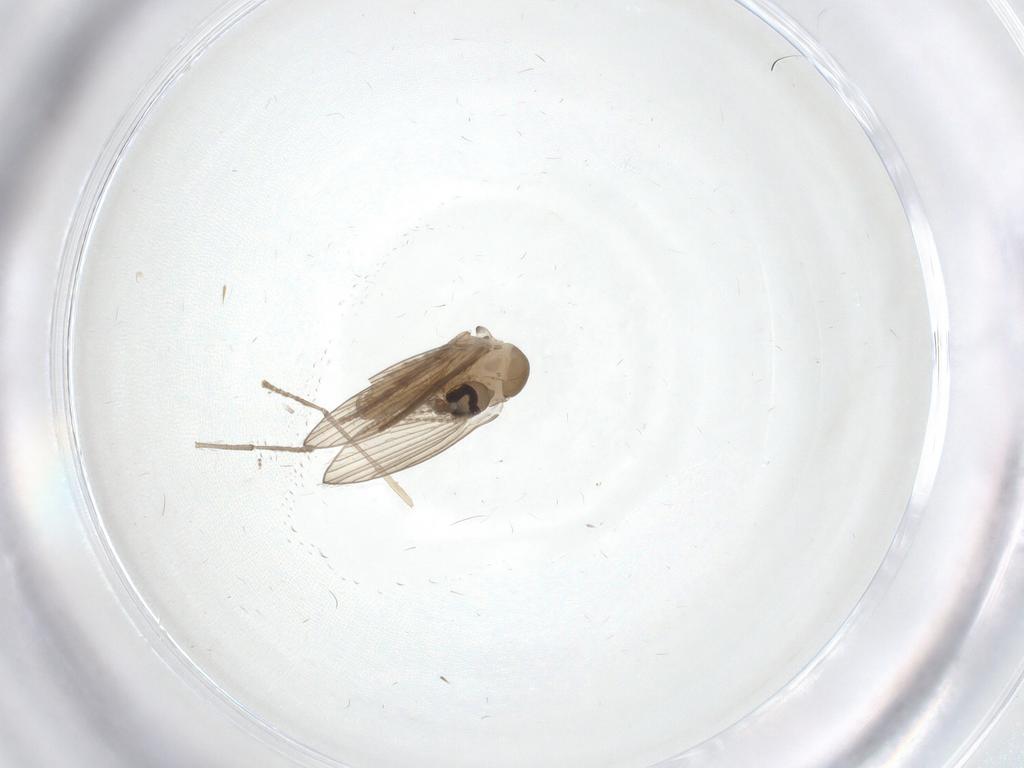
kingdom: Animalia
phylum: Arthropoda
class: Insecta
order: Diptera
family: Psychodidae
